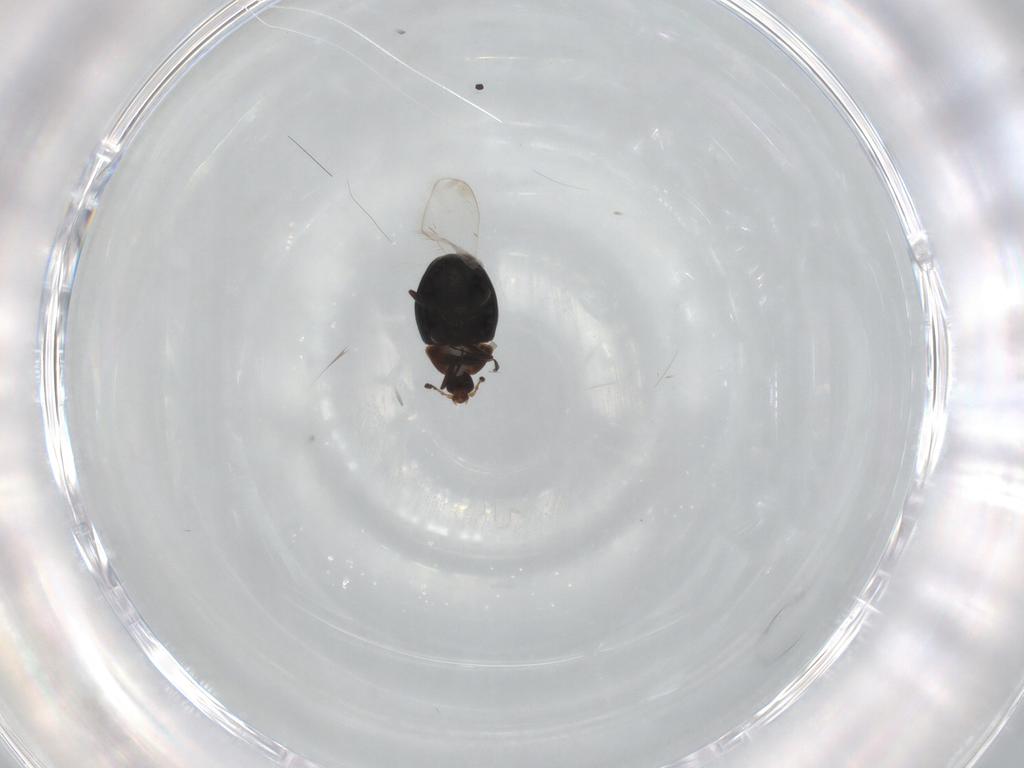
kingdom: Animalia
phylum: Arthropoda
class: Insecta
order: Coleoptera
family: Corylophidae
